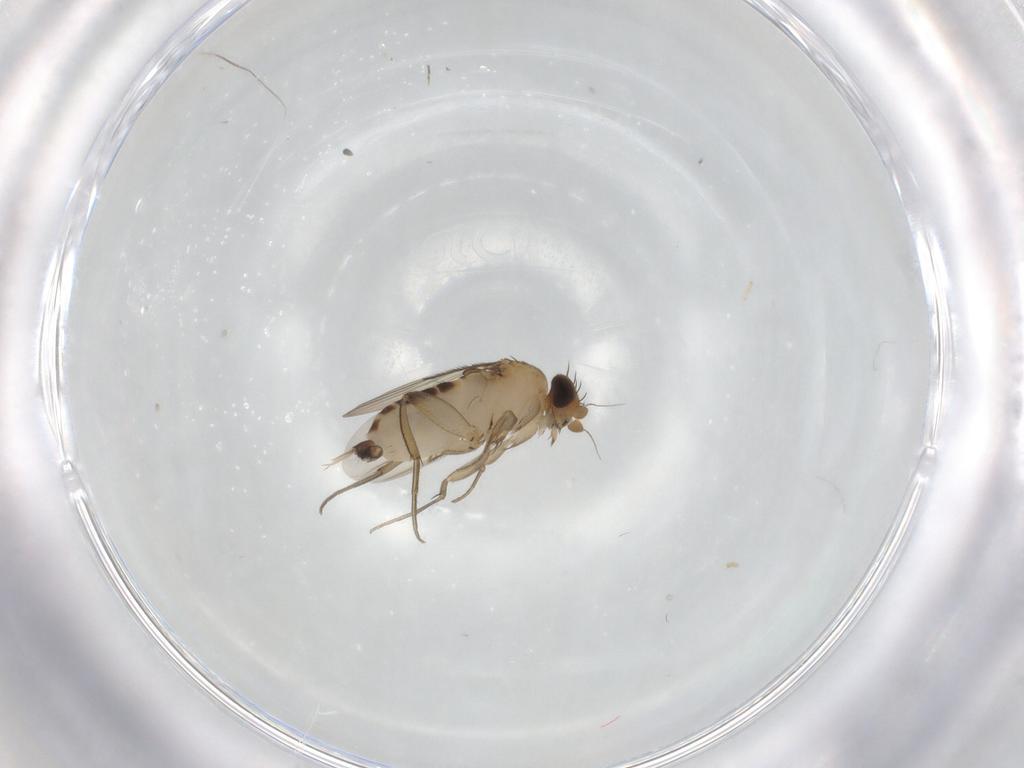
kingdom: Animalia
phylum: Arthropoda
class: Insecta
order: Diptera
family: Phoridae
